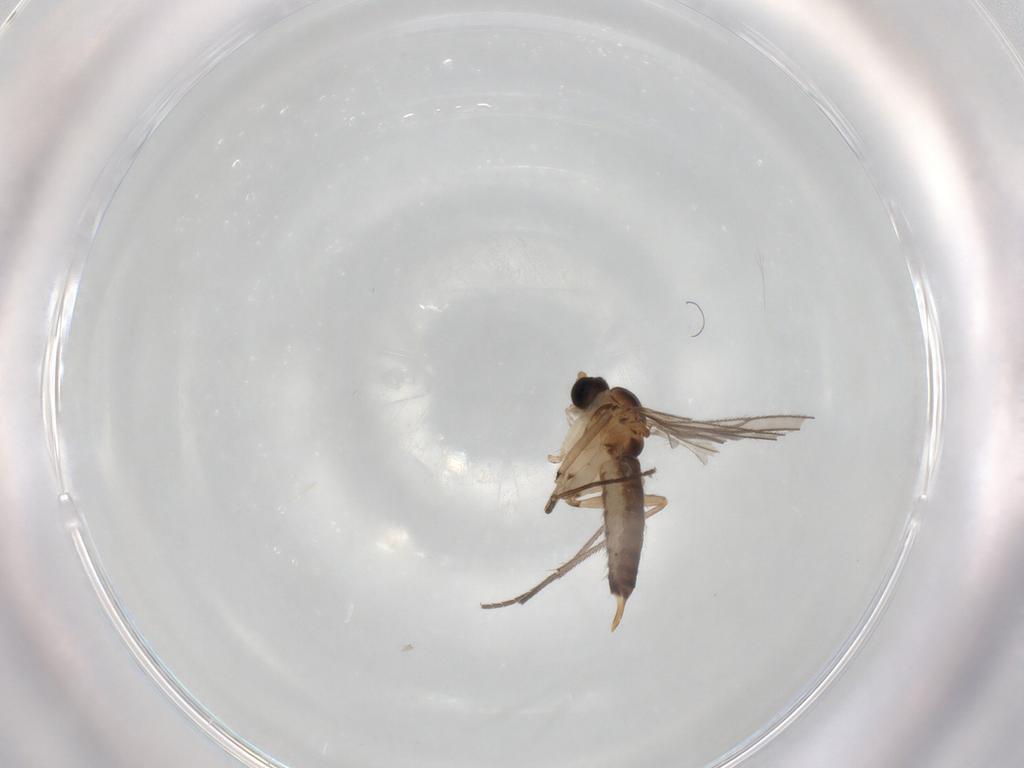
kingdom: Animalia
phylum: Arthropoda
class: Insecta
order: Diptera
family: Sciaridae
